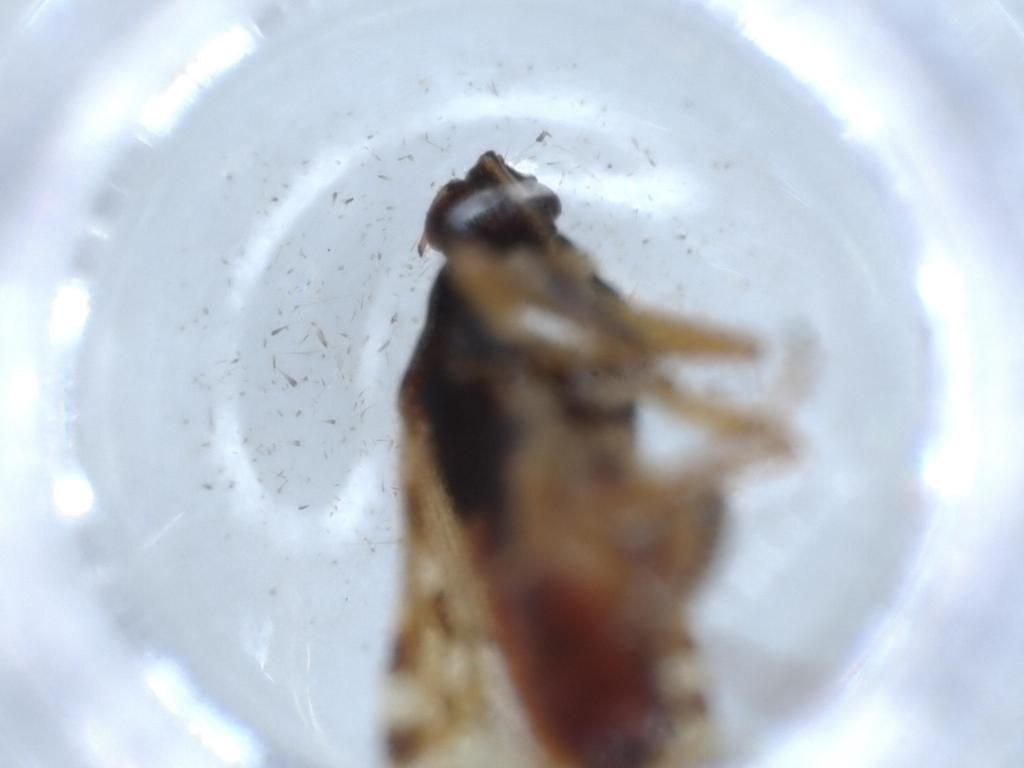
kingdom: Animalia
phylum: Arthropoda
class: Insecta
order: Hemiptera
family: Rhyparochromidae
